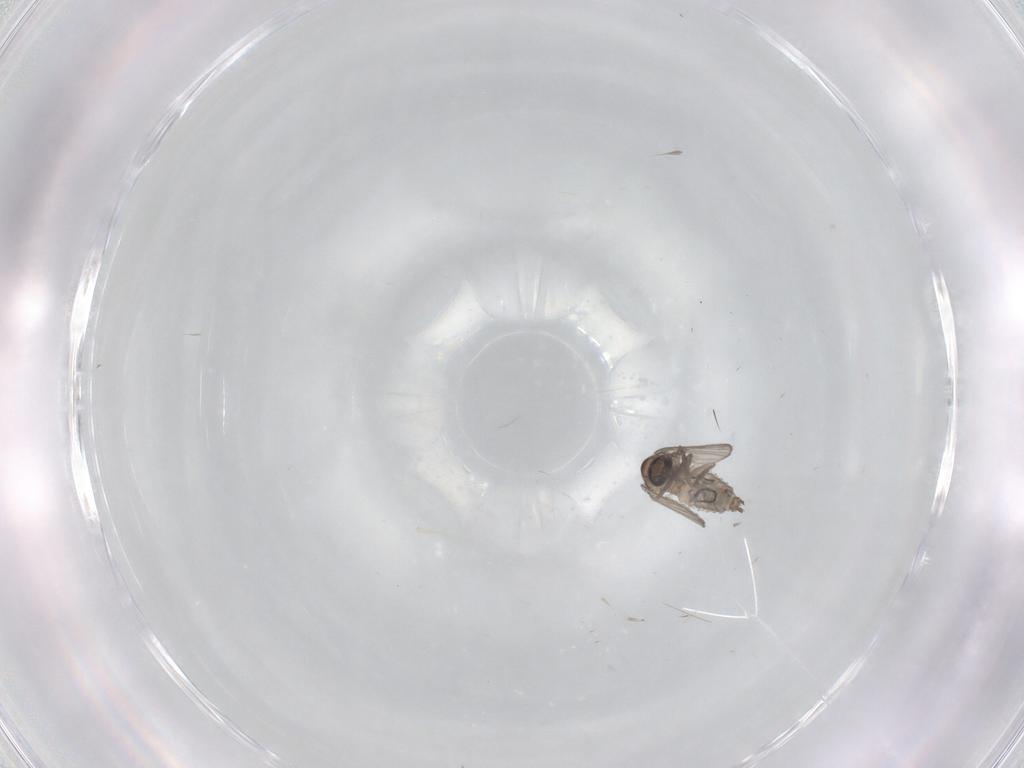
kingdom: Animalia
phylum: Arthropoda
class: Insecta
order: Diptera
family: Psychodidae
